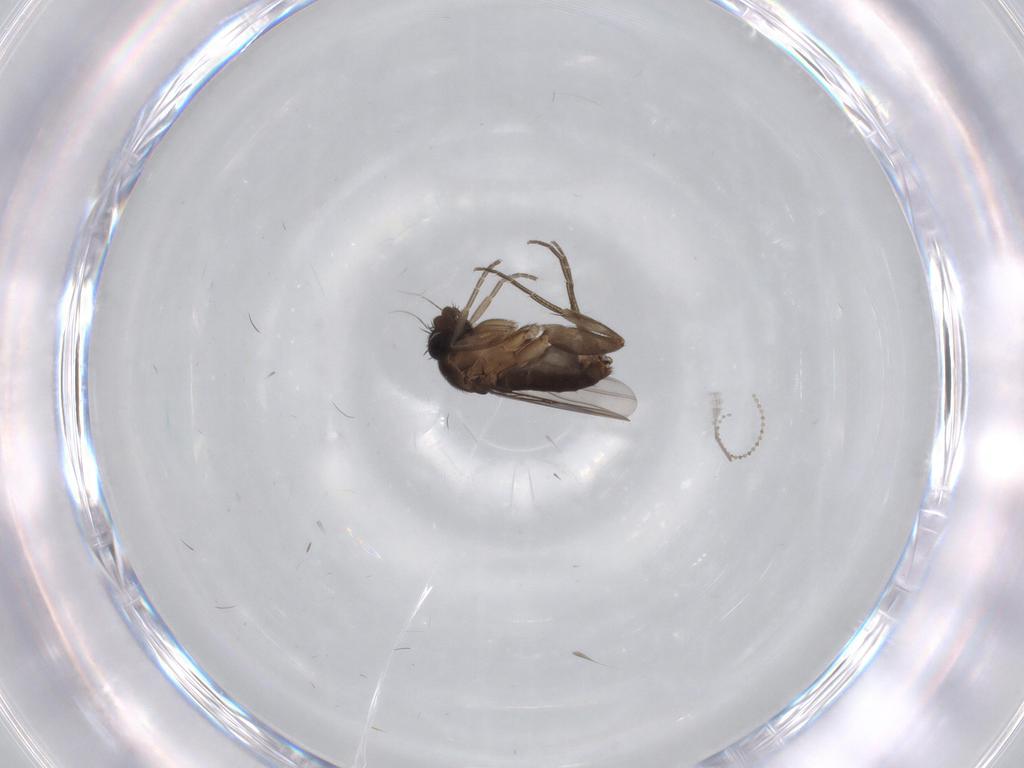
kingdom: Animalia
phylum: Arthropoda
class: Insecta
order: Diptera
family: Phoridae
